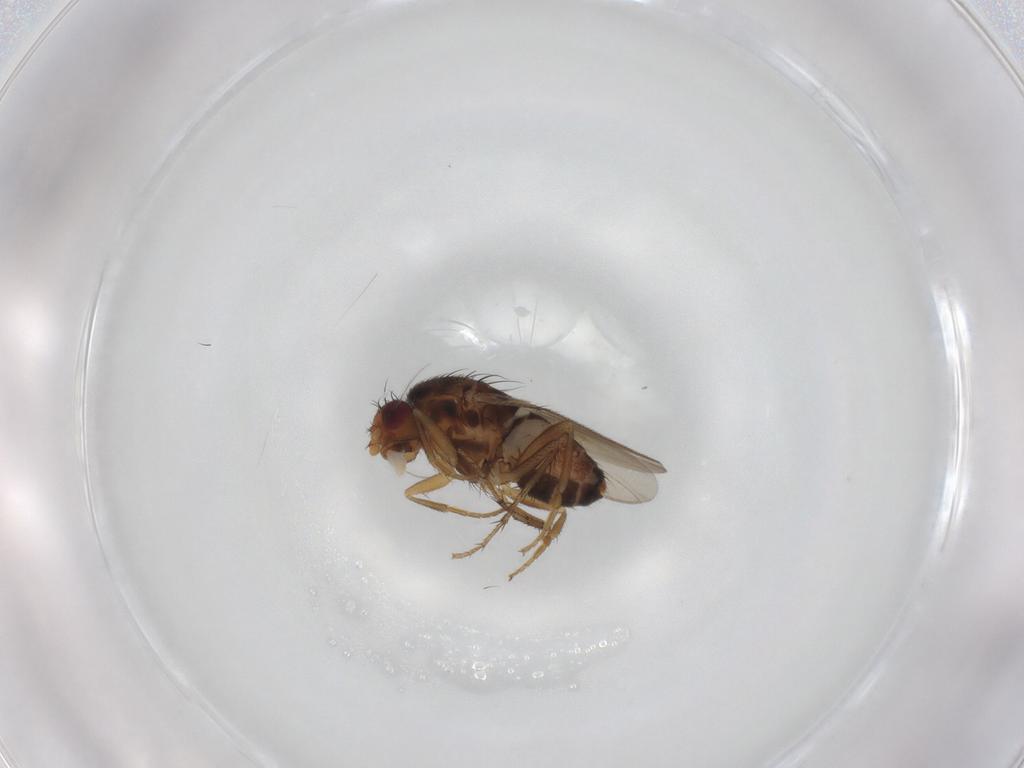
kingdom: Animalia
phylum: Arthropoda
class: Insecta
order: Diptera
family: Sphaeroceridae
